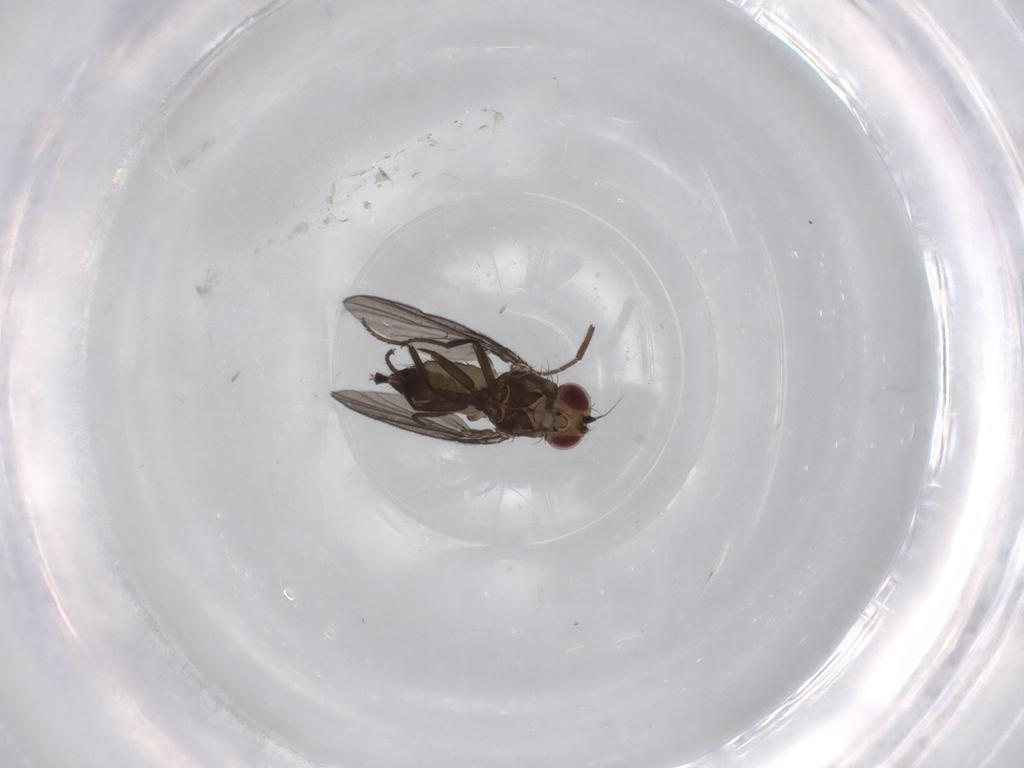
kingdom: Animalia
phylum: Arthropoda
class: Insecta
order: Diptera
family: Agromyzidae
